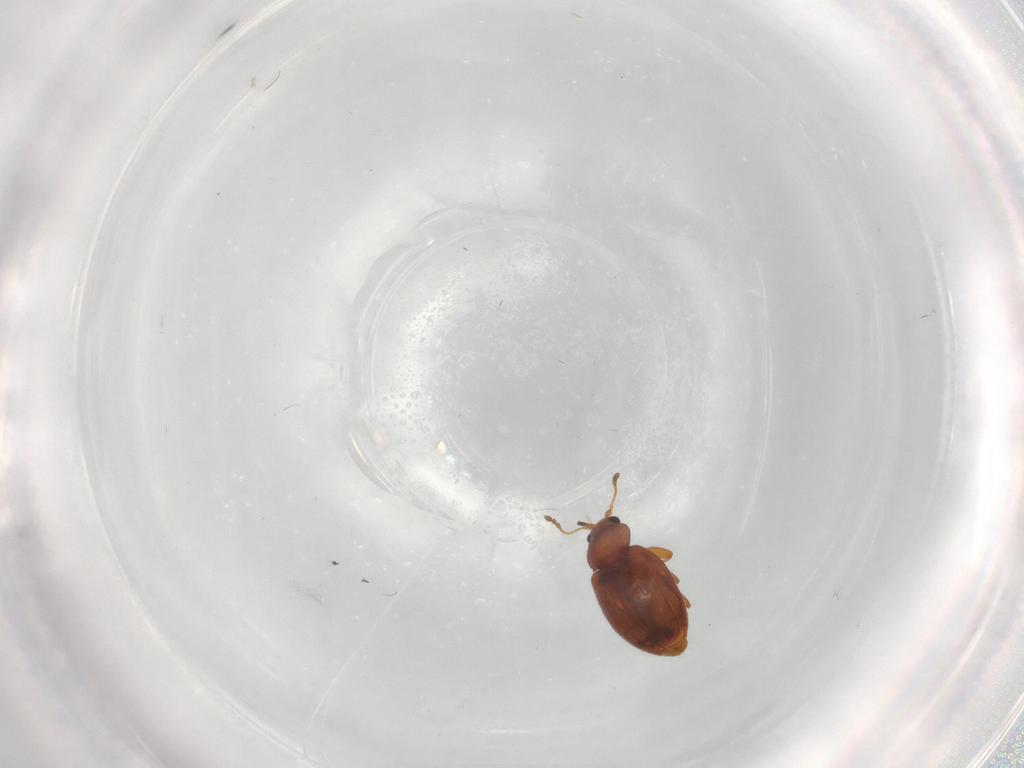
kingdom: Animalia
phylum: Arthropoda
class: Insecta
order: Coleoptera
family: Latridiidae
